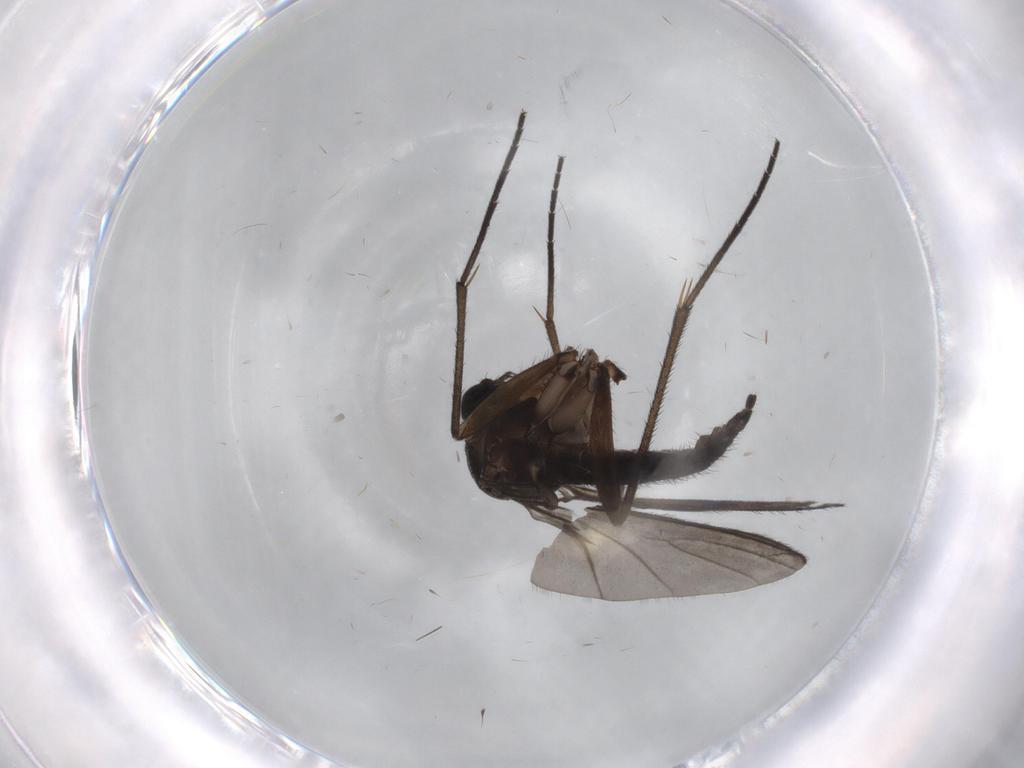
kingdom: Animalia
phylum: Arthropoda
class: Insecta
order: Diptera
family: Sciaridae
